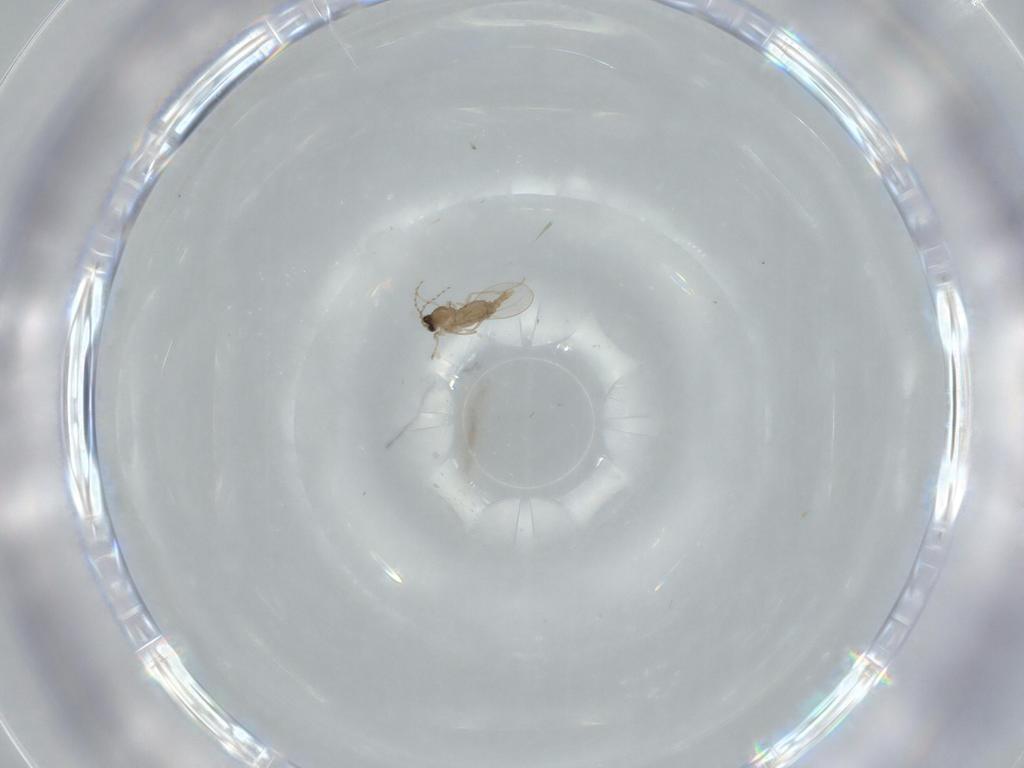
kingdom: Animalia
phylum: Arthropoda
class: Insecta
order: Diptera
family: Cecidomyiidae
